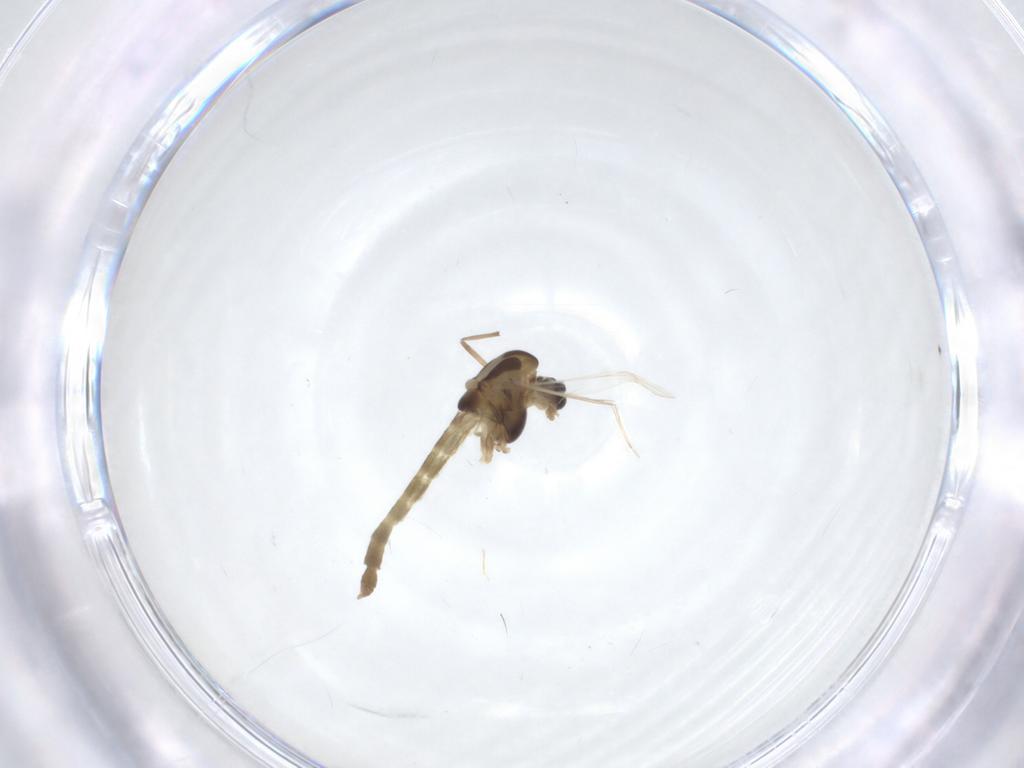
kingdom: Animalia
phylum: Arthropoda
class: Insecta
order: Diptera
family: Chironomidae
